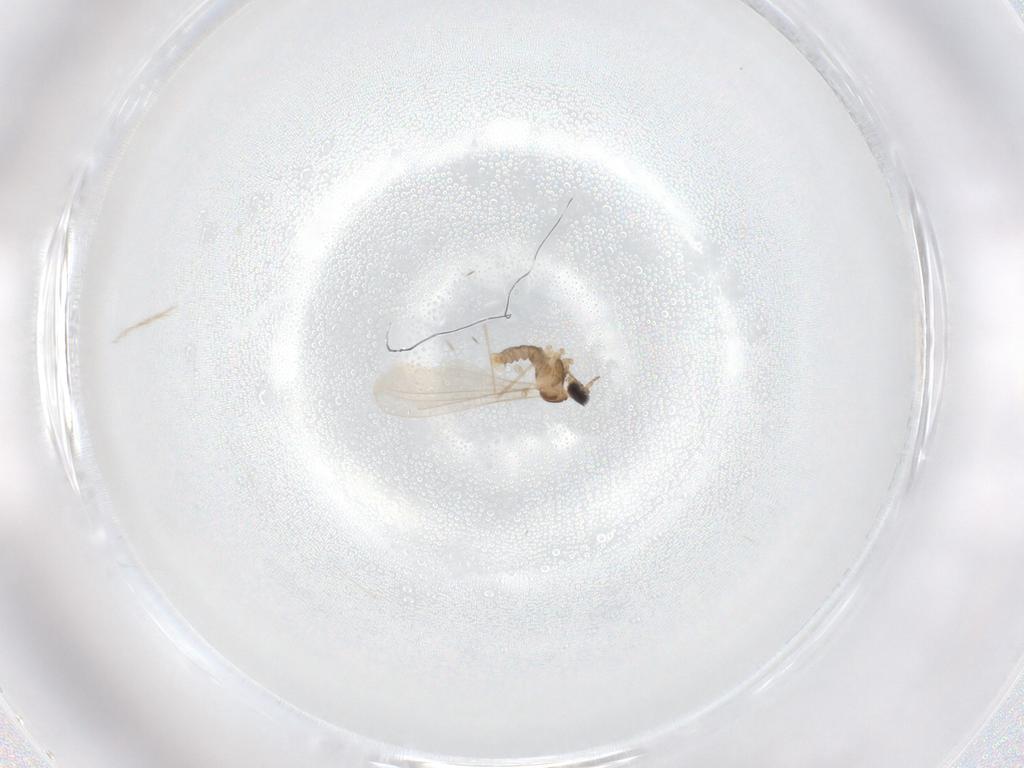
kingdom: Animalia
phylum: Arthropoda
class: Insecta
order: Diptera
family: Cecidomyiidae
